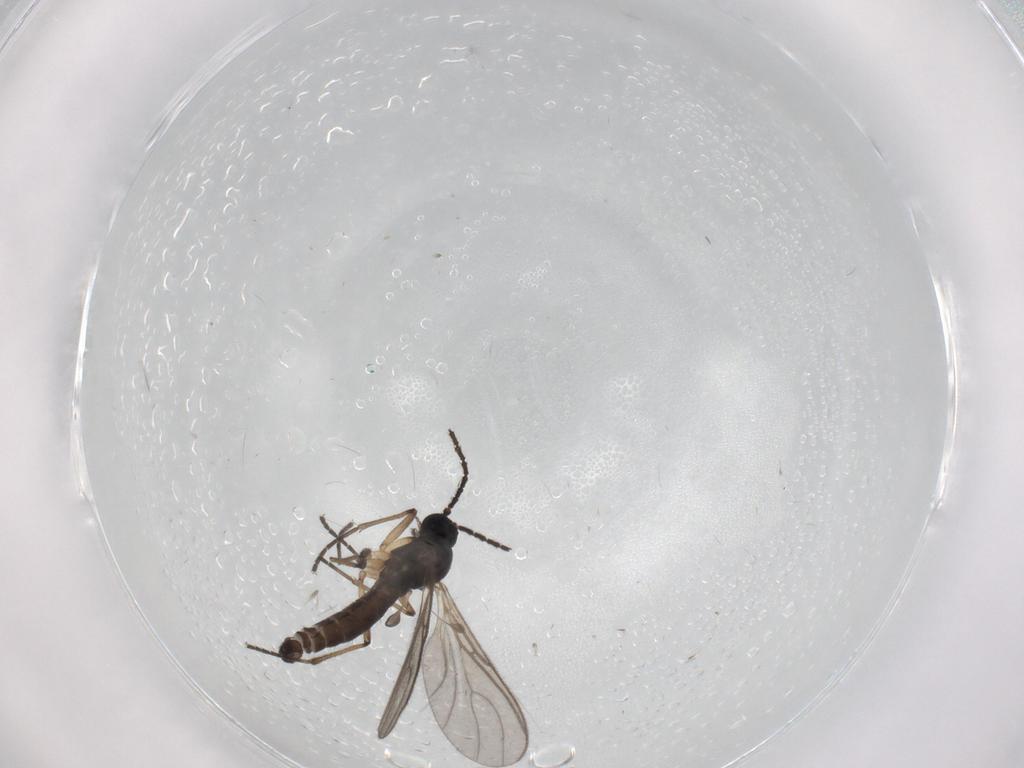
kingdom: Animalia
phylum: Arthropoda
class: Insecta
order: Diptera
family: Sciaridae
